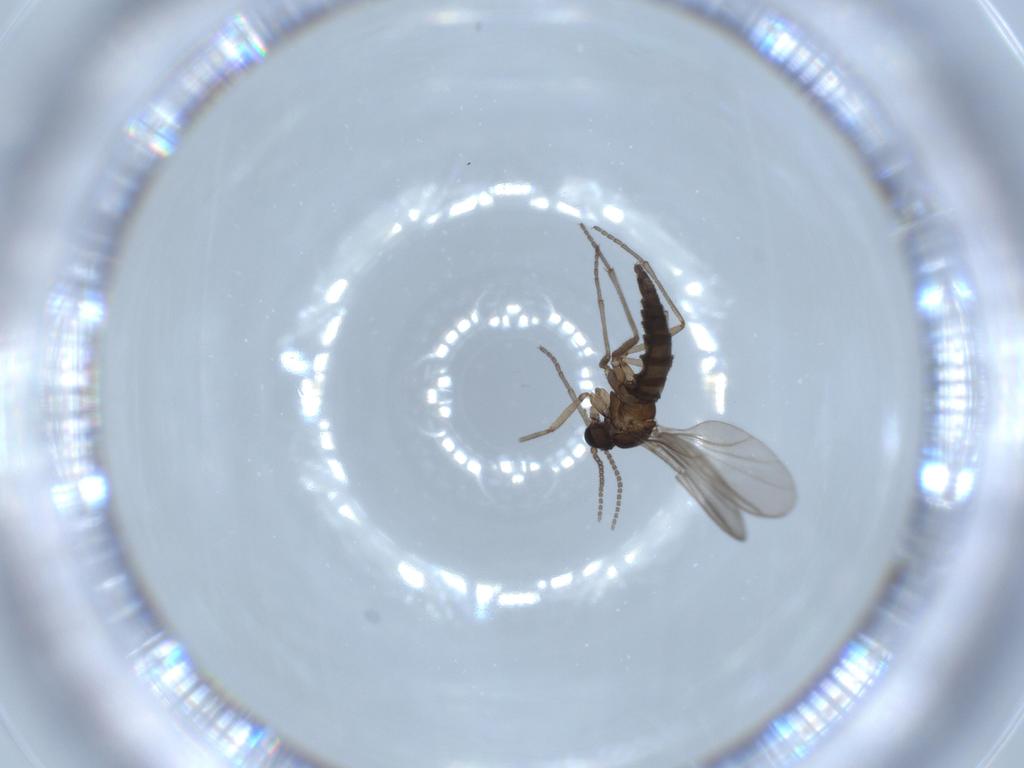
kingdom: Animalia
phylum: Arthropoda
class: Insecta
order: Diptera
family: Sciaridae
